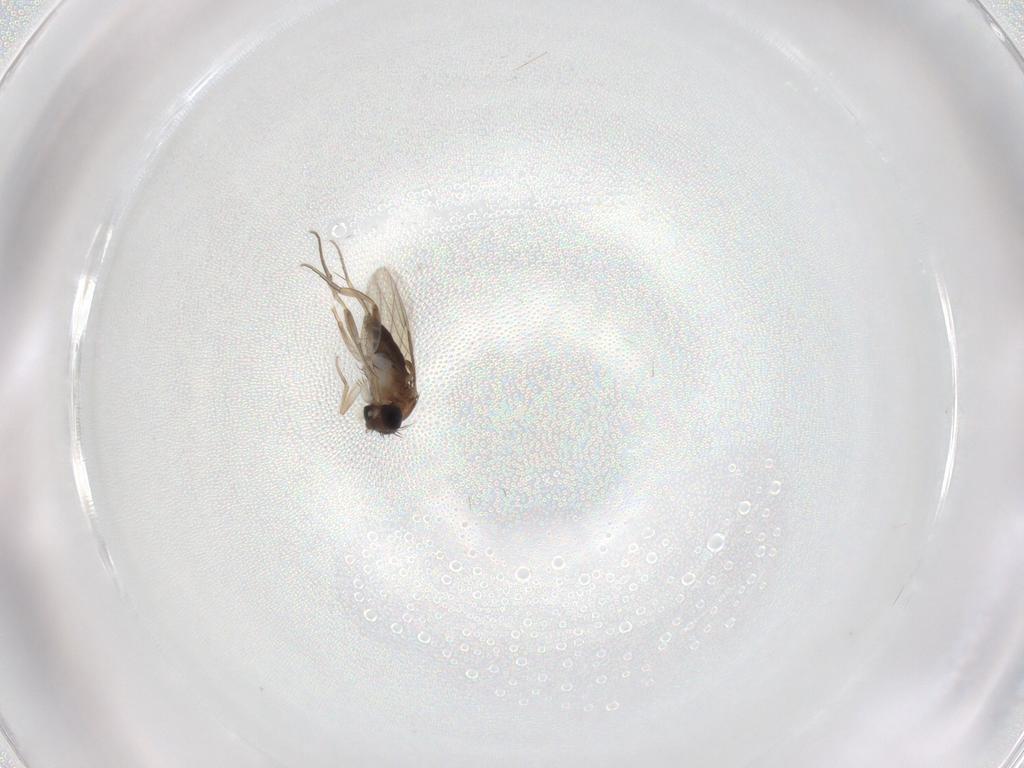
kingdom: Animalia
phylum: Arthropoda
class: Insecta
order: Diptera
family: Phoridae
